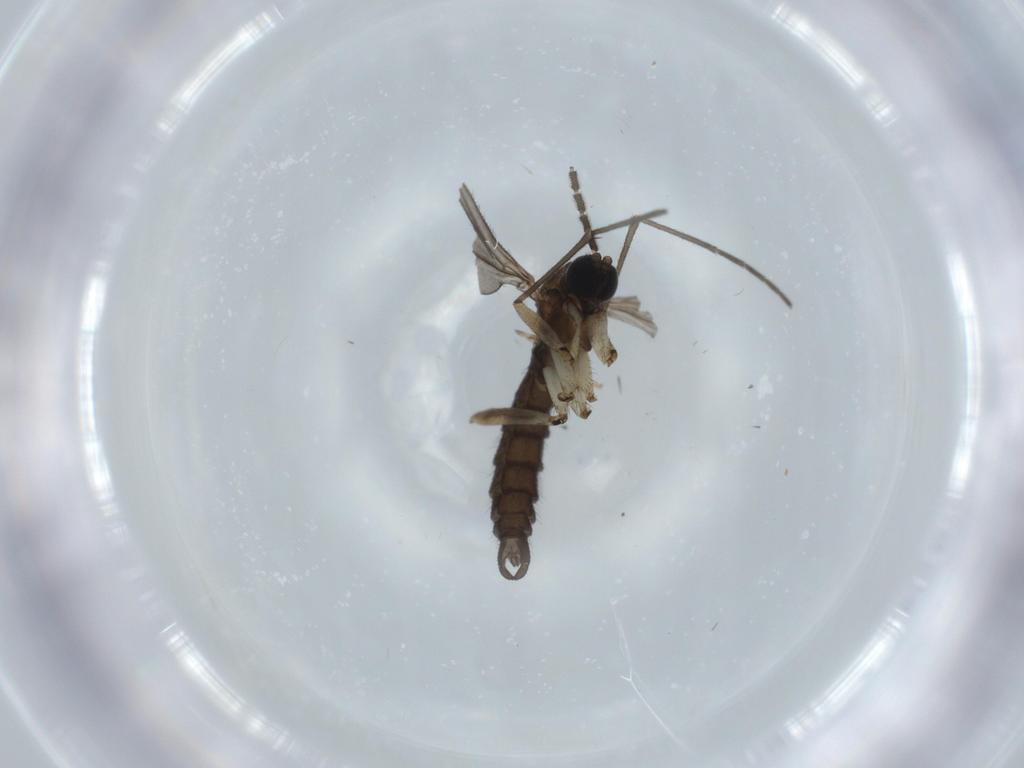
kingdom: Animalia
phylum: Arthropoda
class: Insecta
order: Diptera
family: Sciaridae
